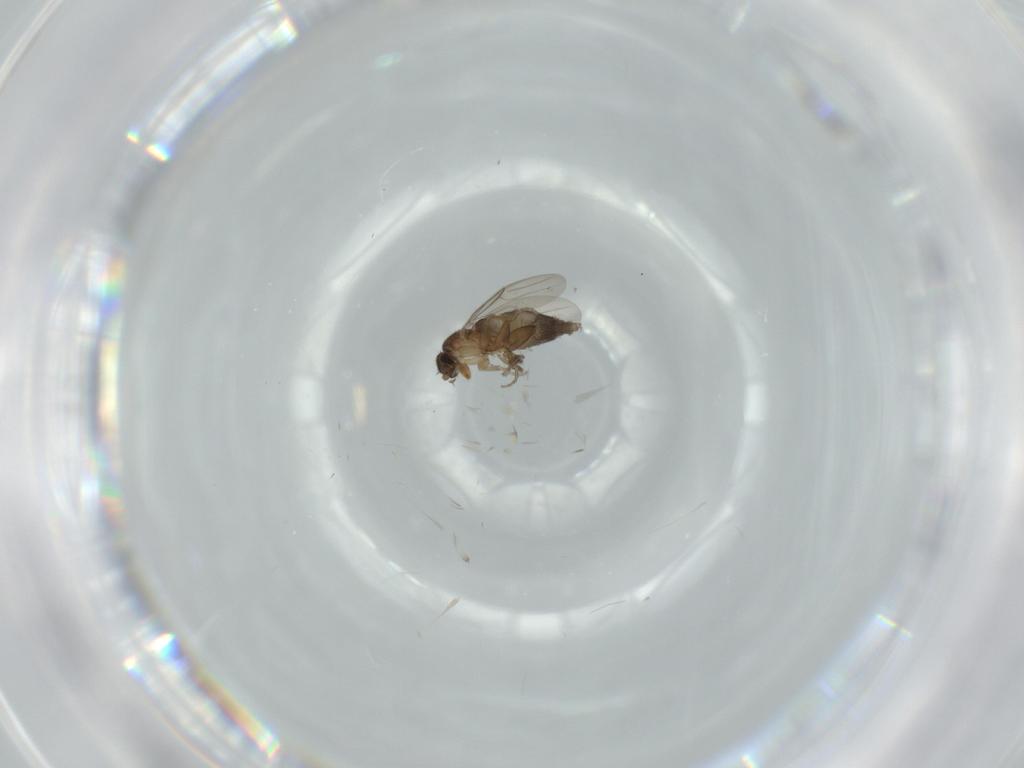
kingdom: Animalia
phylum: Arthropoda
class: Insecta
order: Diptera
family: Phoridae
